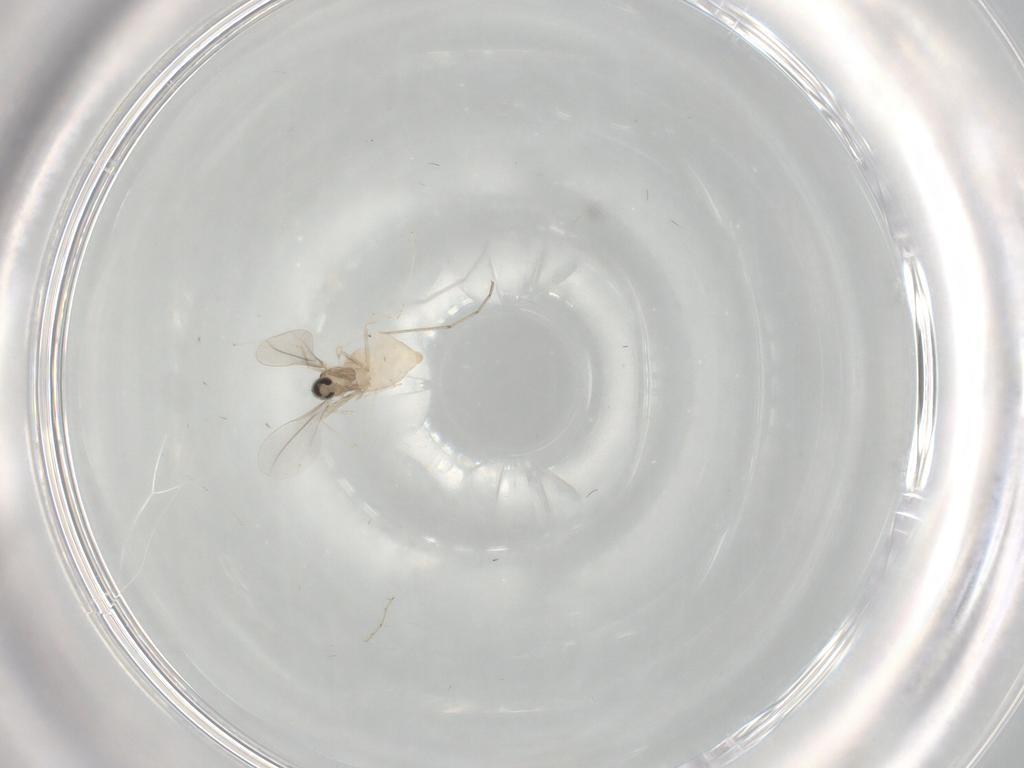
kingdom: Animalia
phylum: Arthropoda
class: Insecta
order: Diptera
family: Cecidomyiidae
